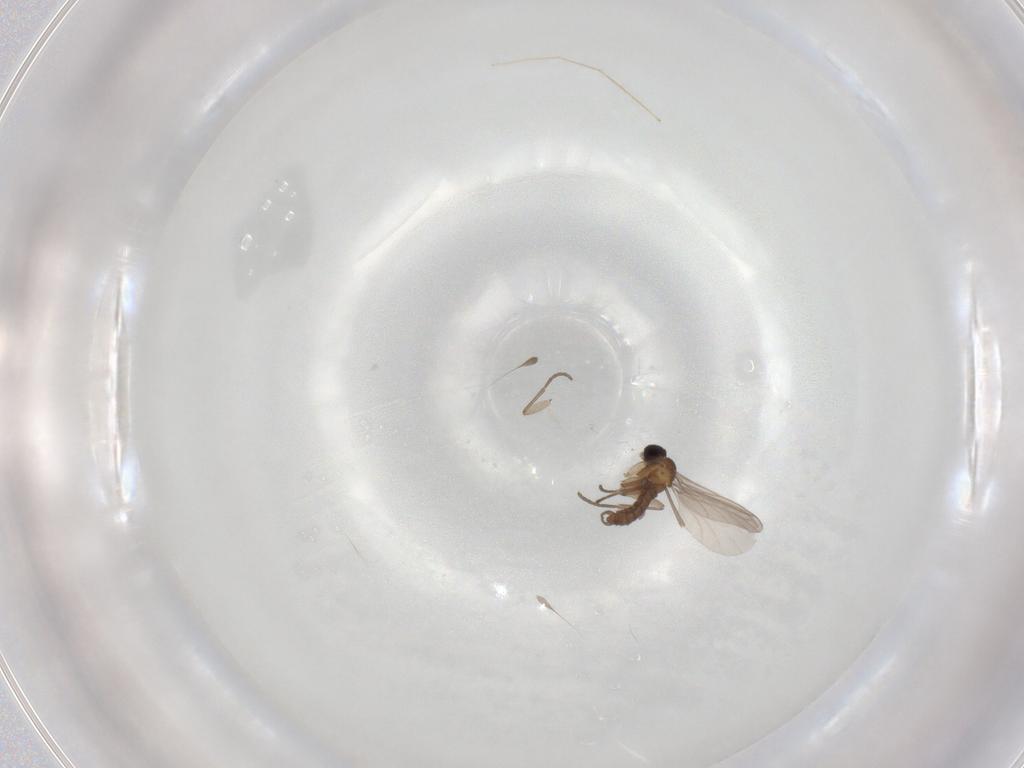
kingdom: Animalia
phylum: Arthropoda
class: Insecta
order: Diptera
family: Sciaridae
